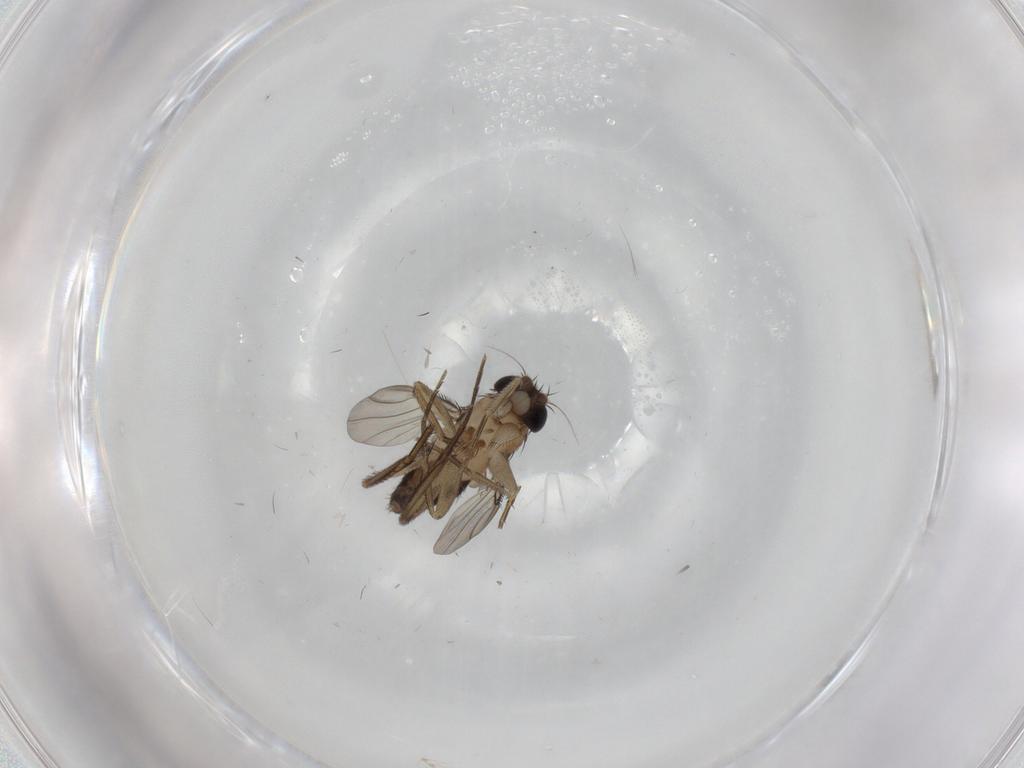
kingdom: Animalia
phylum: Arthropoda
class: Insecta
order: Diptera
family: Phoridae
